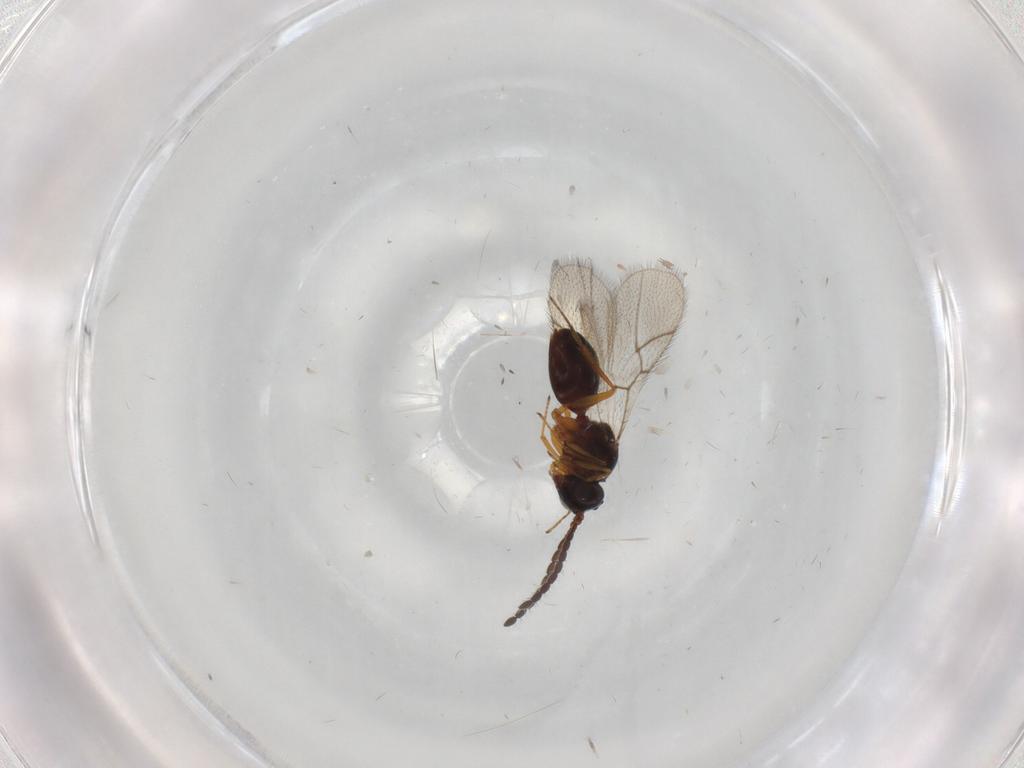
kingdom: Animalia
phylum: Arthropoda
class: Insecta
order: Hymenoptera
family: Figitidae
